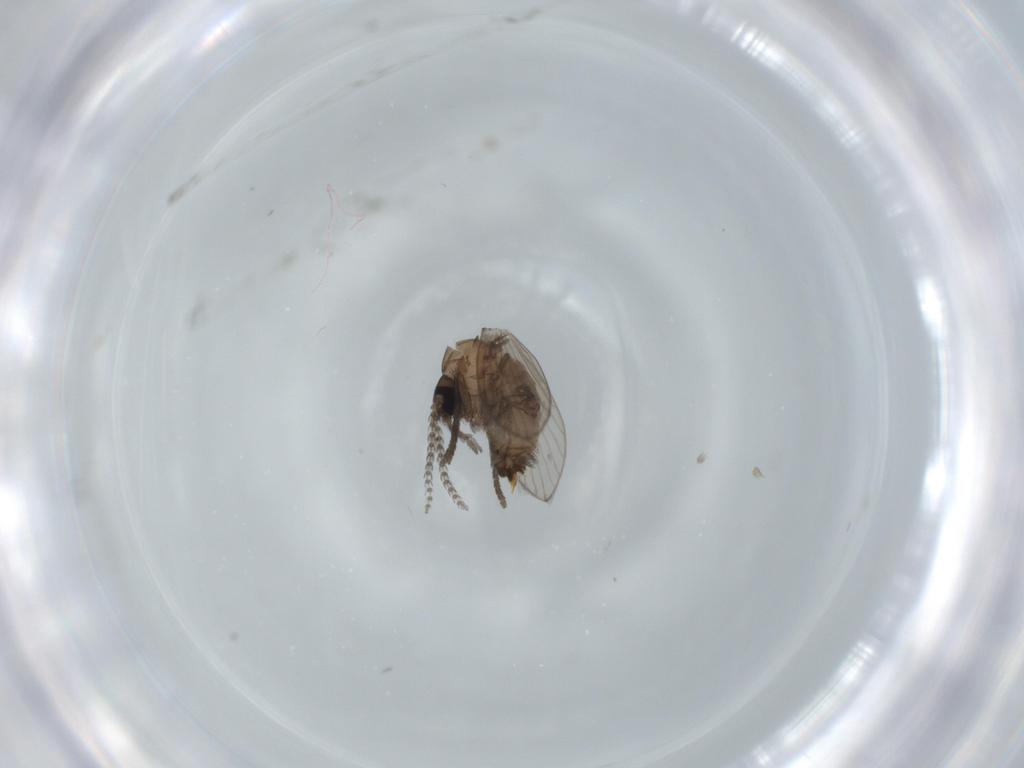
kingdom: Animalia
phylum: Arthropoda
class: Insecta
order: Diptera
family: Psychodidae
